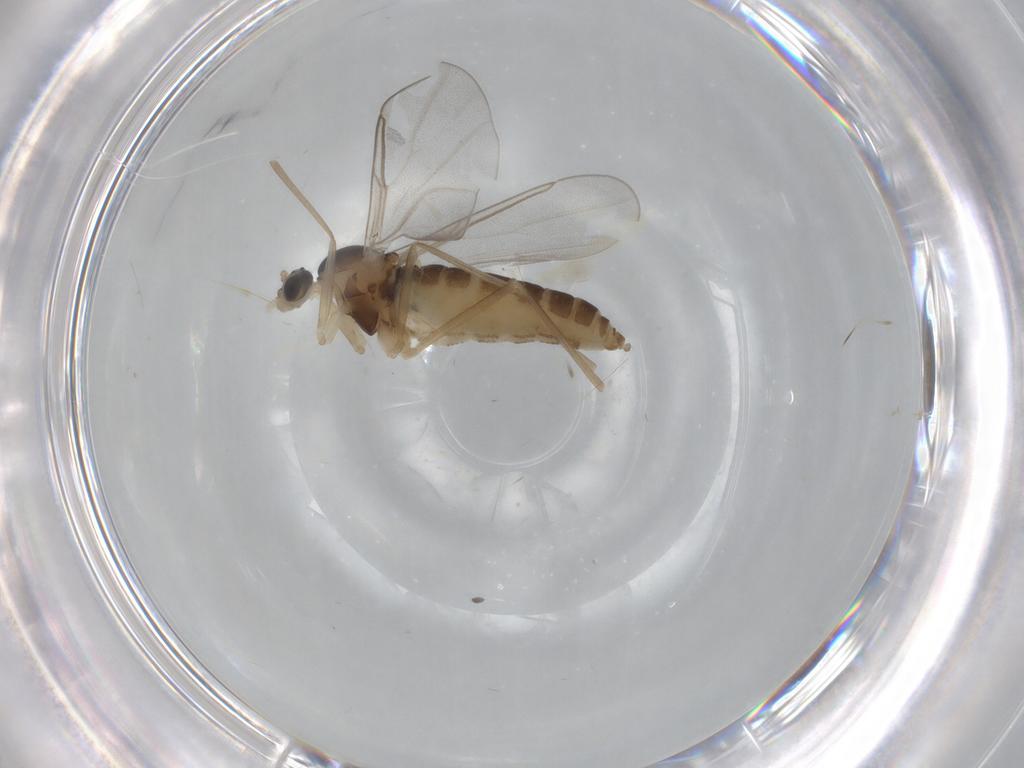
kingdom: Animalia
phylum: Arthropoda
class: Insecta
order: Diptera
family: Cecidomyiidae
